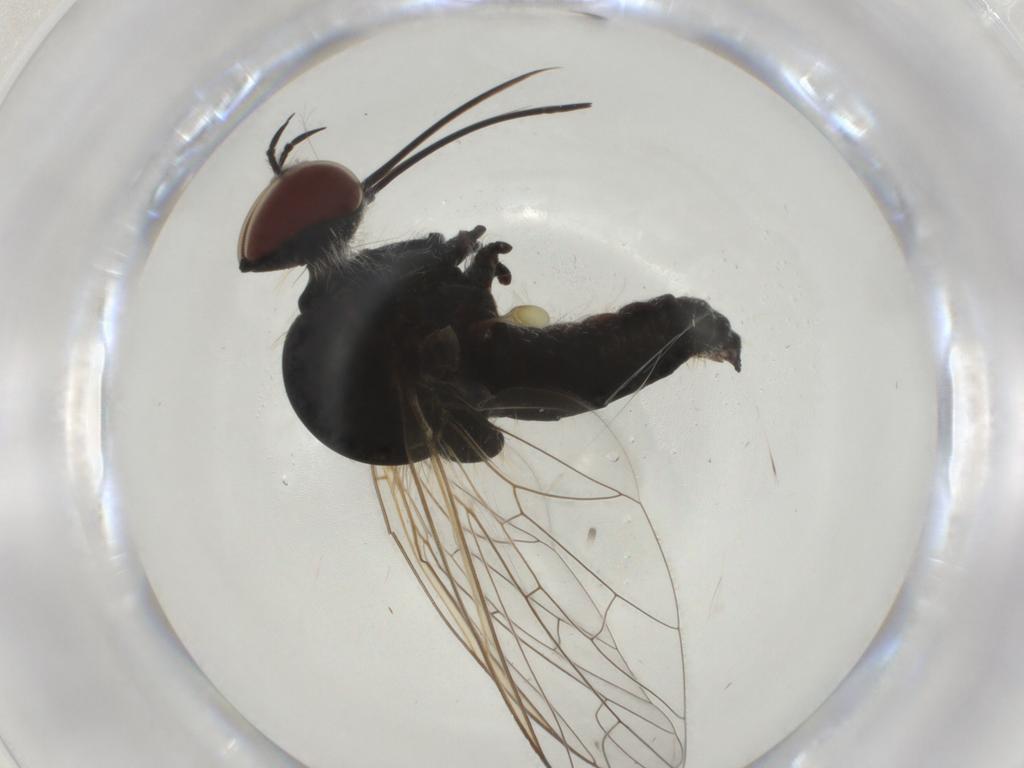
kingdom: Animalia
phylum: Arthropoda
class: Insecta
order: Diptera
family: Bombyliidae
